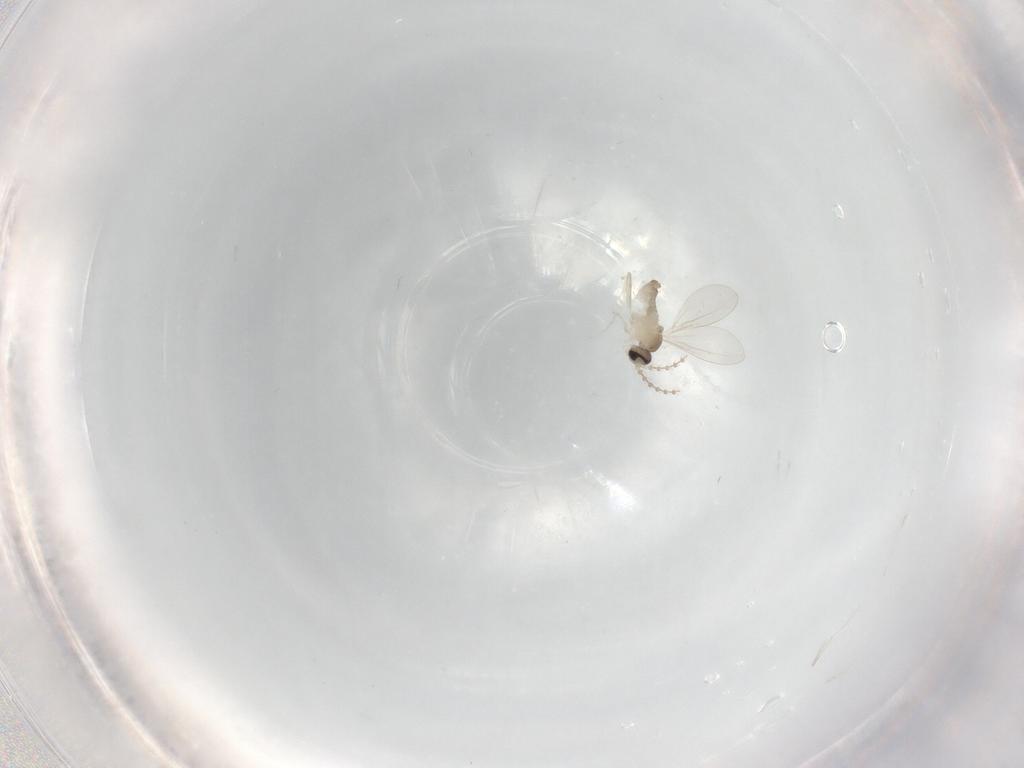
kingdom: Animalia
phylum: Arthropoda
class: Insecta
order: Diptera
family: Cecidomyiidae
